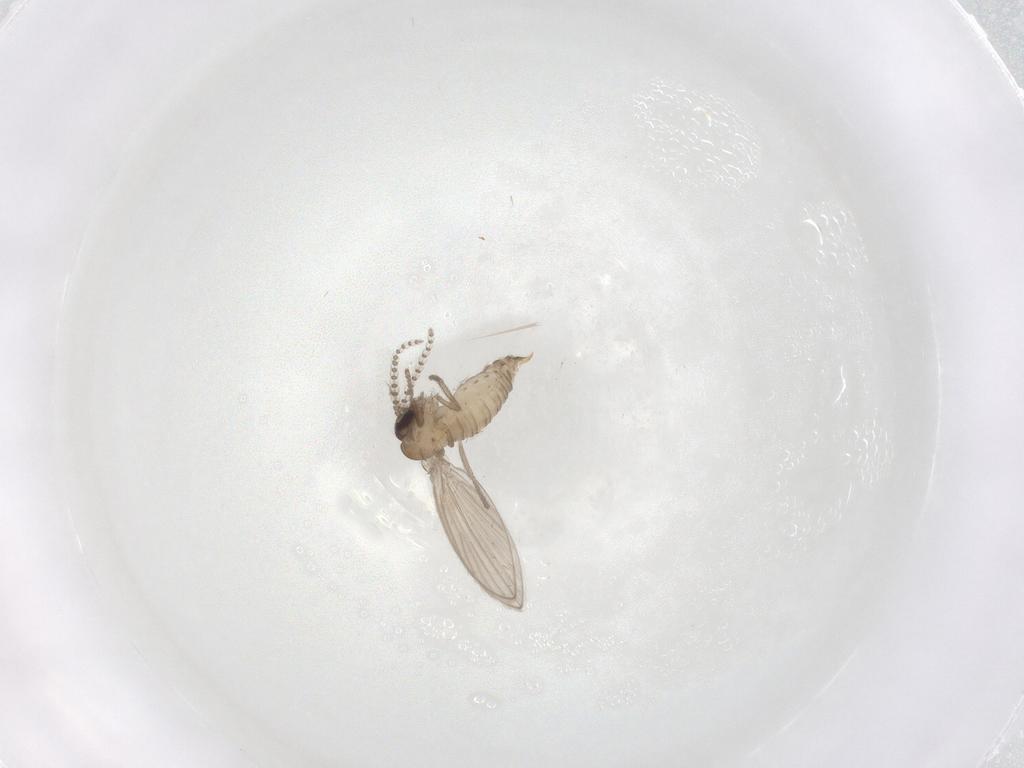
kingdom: Animalia
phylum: Arthropoda
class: Insecta
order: Diptera
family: Psychodidae
